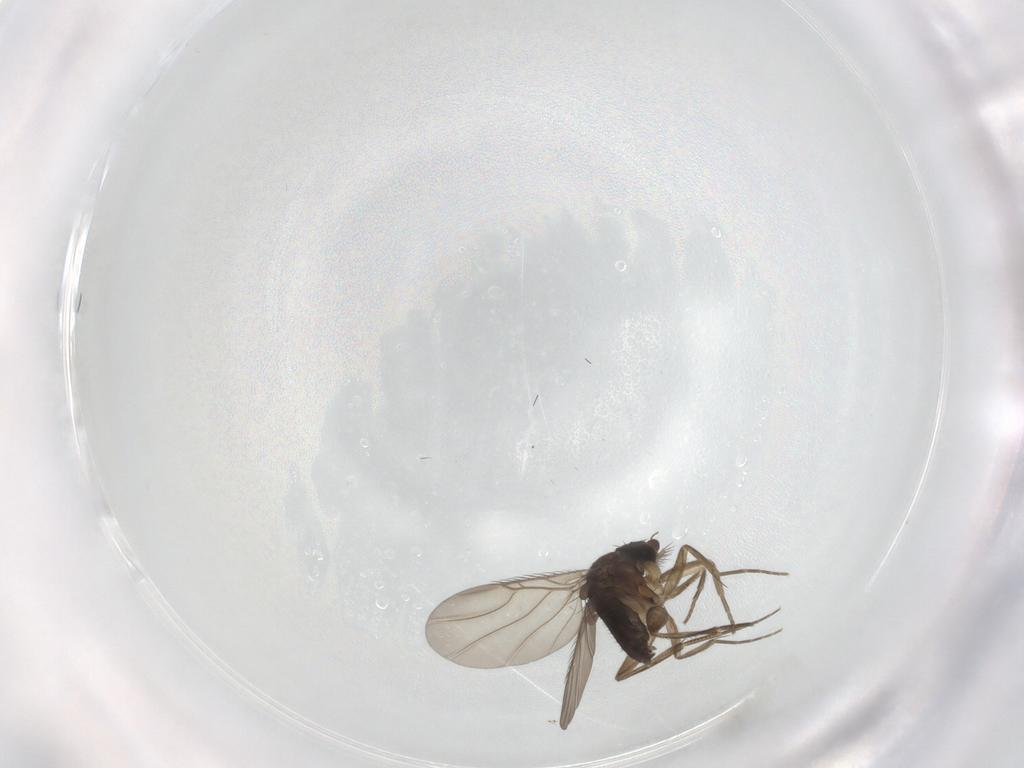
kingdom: Animalia
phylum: Arthropoda
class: Insecta
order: Diptera
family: Phoridae
